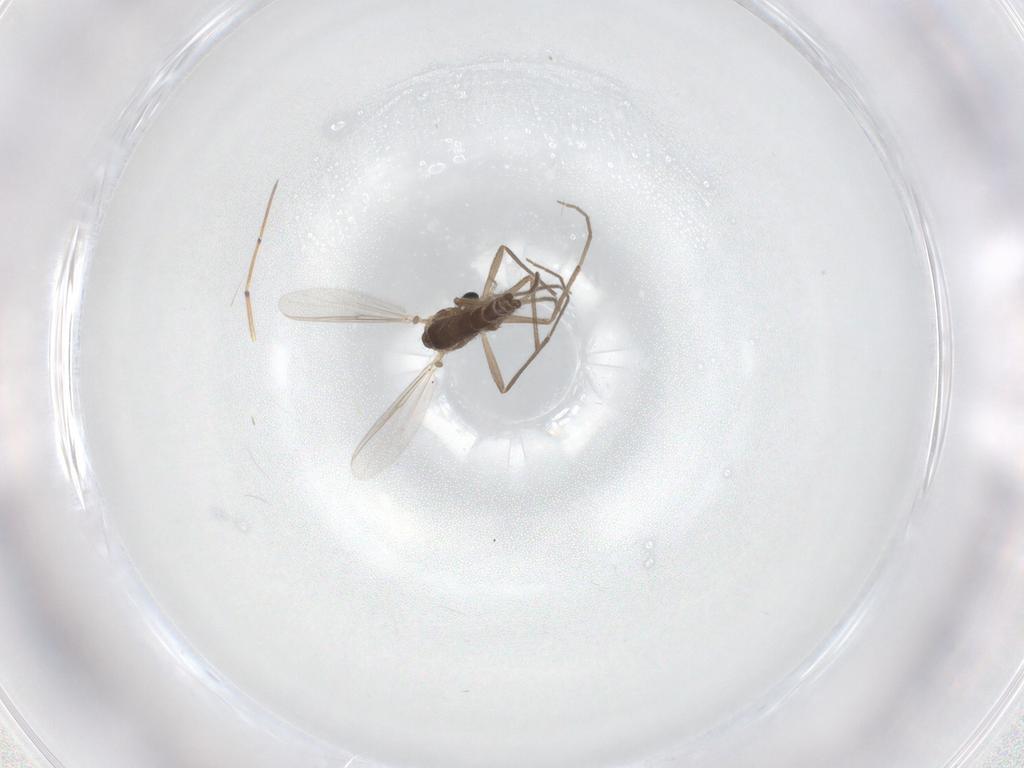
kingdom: Animalia
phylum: Arthropoda
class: Insecta
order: Diptera
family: Chironomidae
